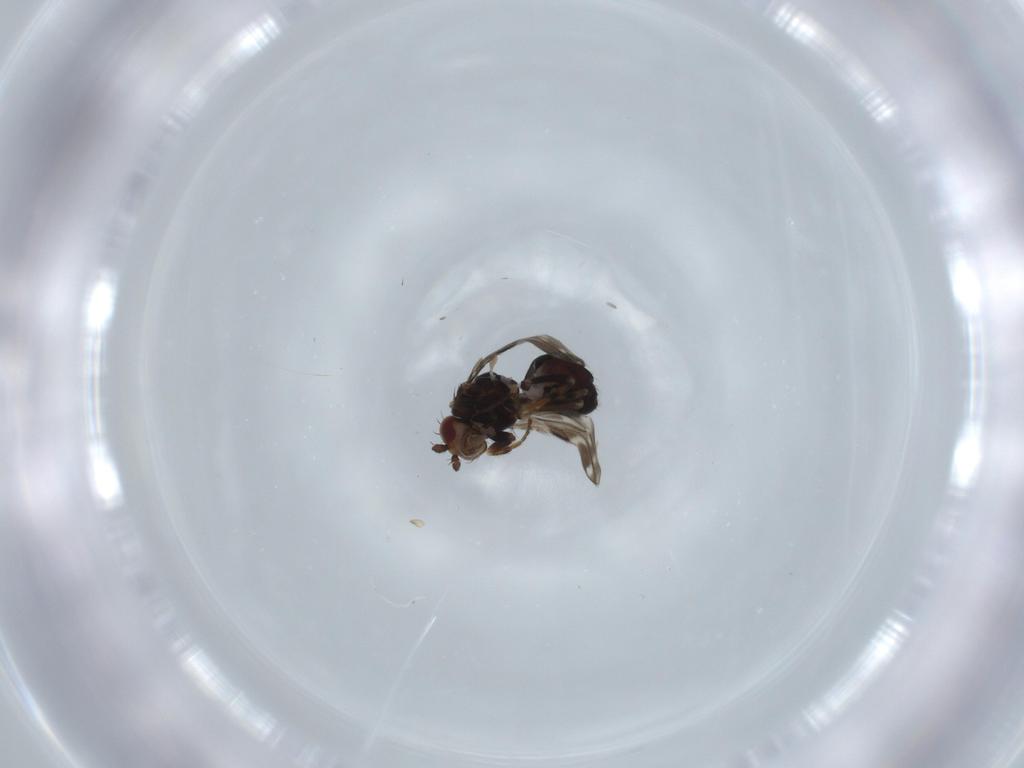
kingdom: Animalia
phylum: Arthropoda
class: Insecta
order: Diptera
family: Sphaeroceridae
